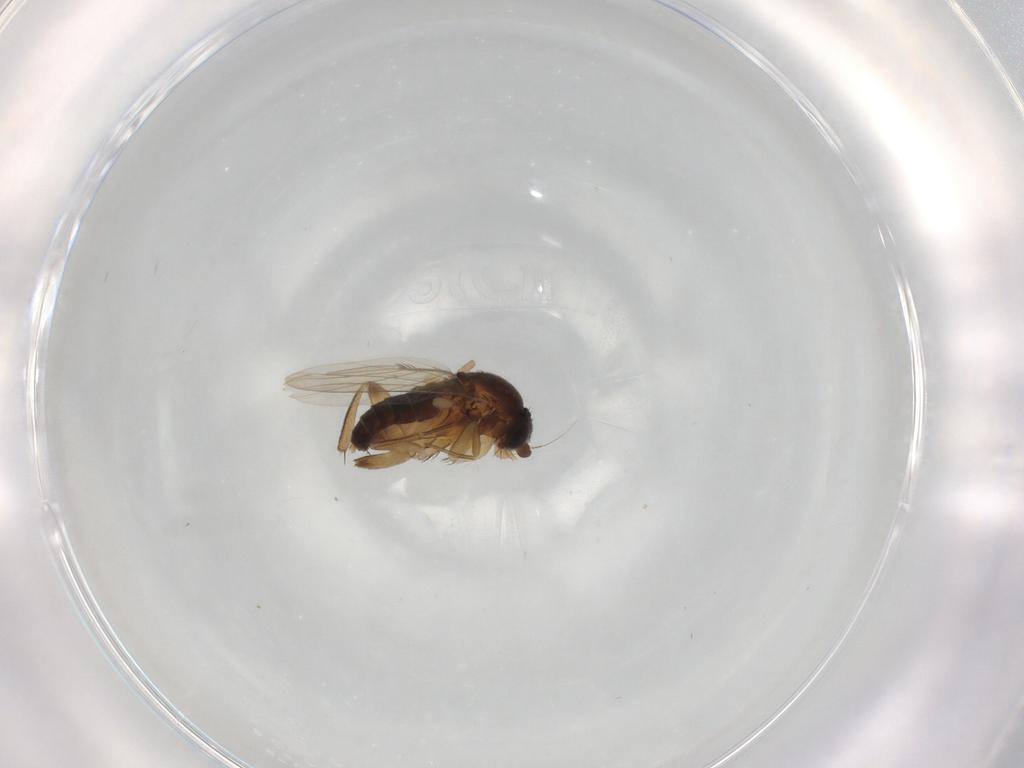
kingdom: Animalia
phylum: Arthropoda
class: Insecta
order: Diptera
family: Phoridae
